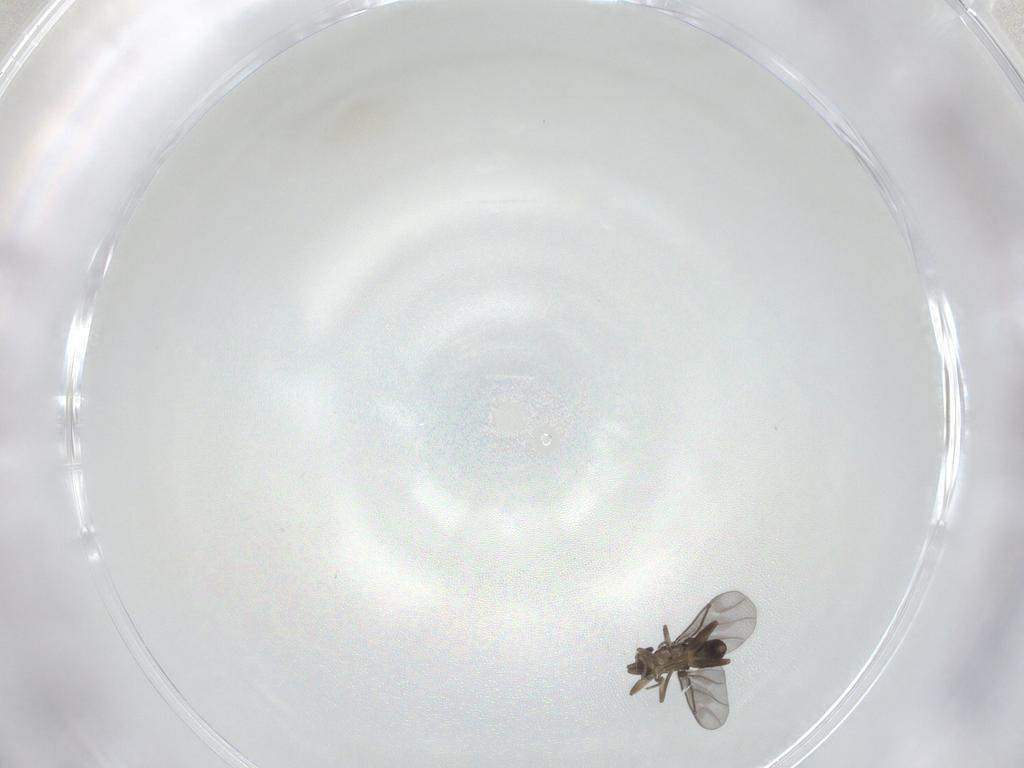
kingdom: Animalia
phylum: Arthropoda
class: Insecta
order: Diptera
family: Phoridae
